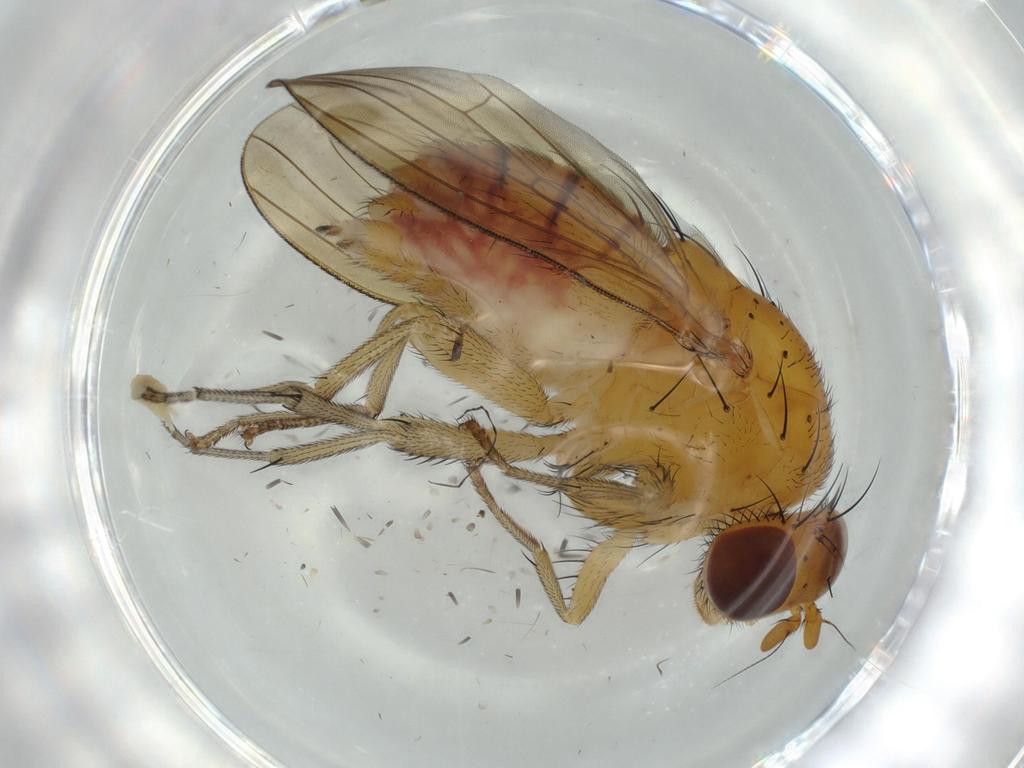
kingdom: Animalia
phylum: Arthropoda
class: Insecta
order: Diptera
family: Cecidomyiidae
